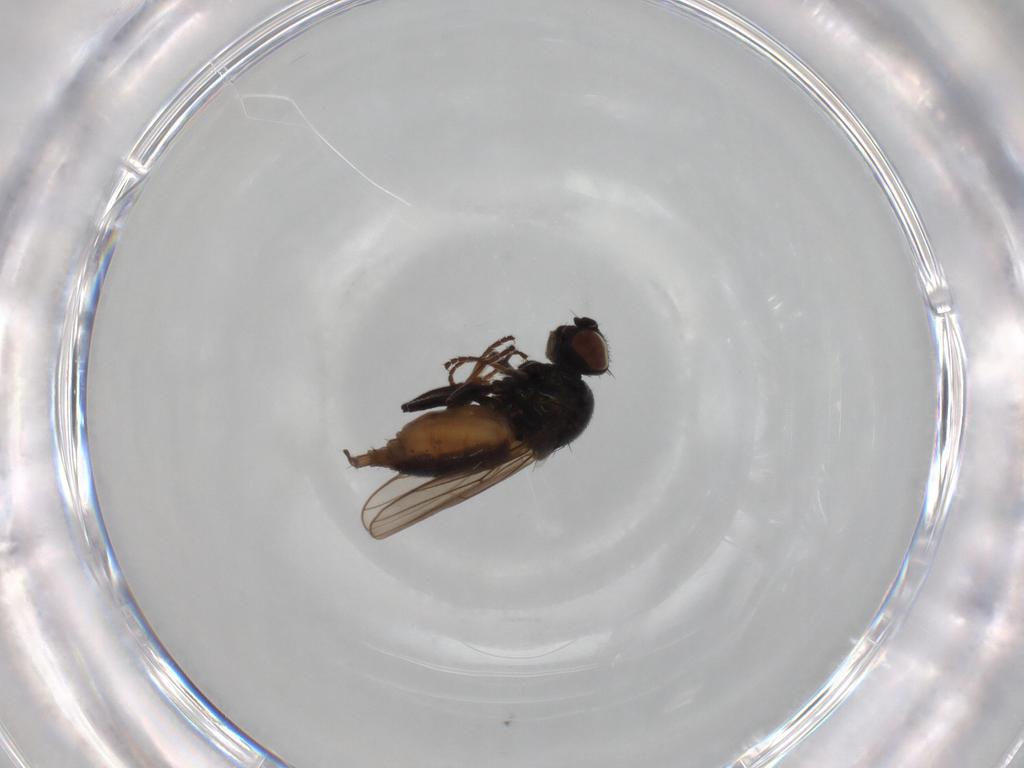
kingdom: Animalia
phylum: Arthropoda
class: Insecta
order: Diptera
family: Chloropidae
